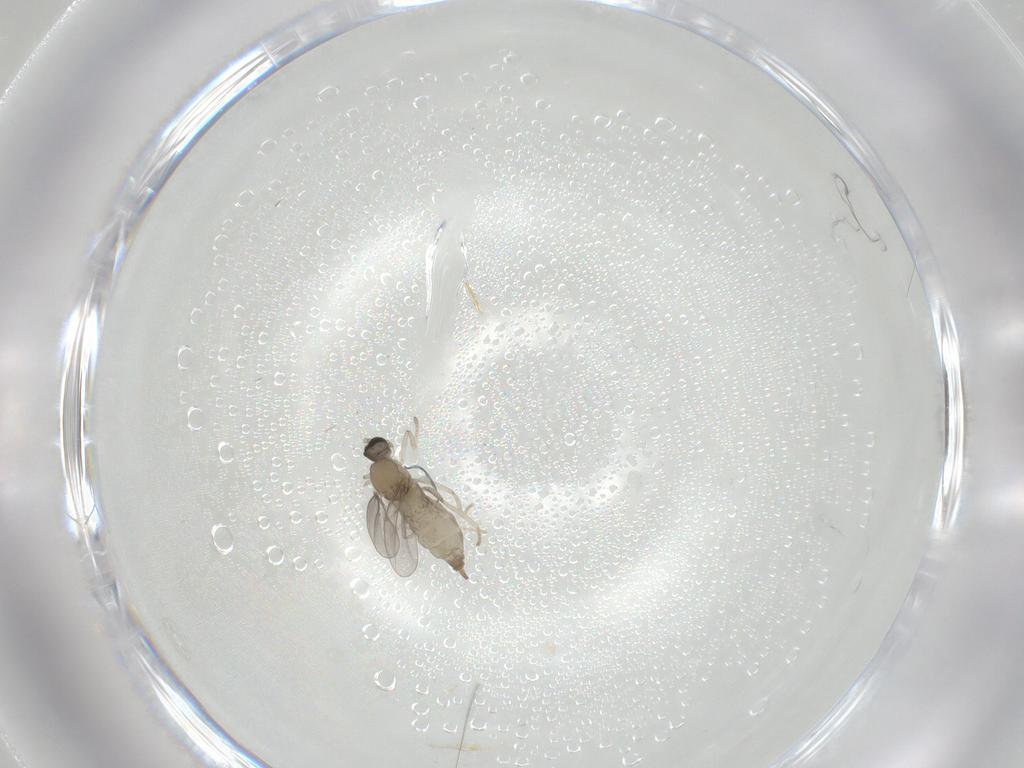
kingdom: Animalia
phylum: Arthropoda
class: Insecta
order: Diptera
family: Cecidomyiidae
